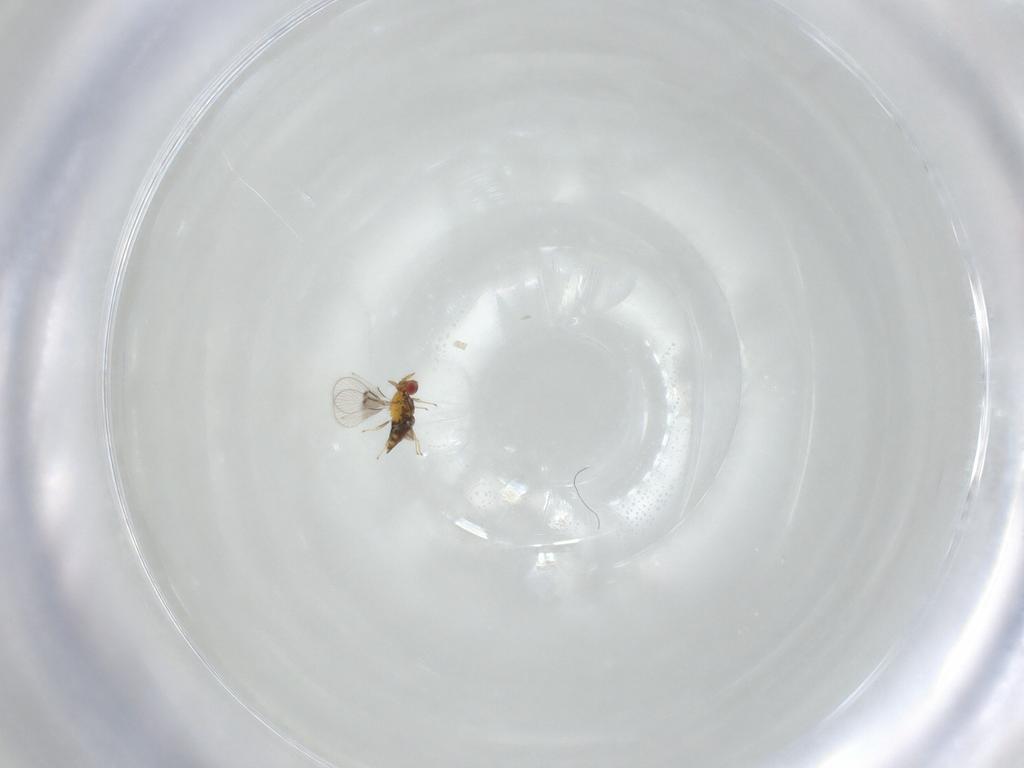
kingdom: Animalia
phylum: Arthropoda
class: Insecta
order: Hymenoptera
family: Trichogrammatidae
